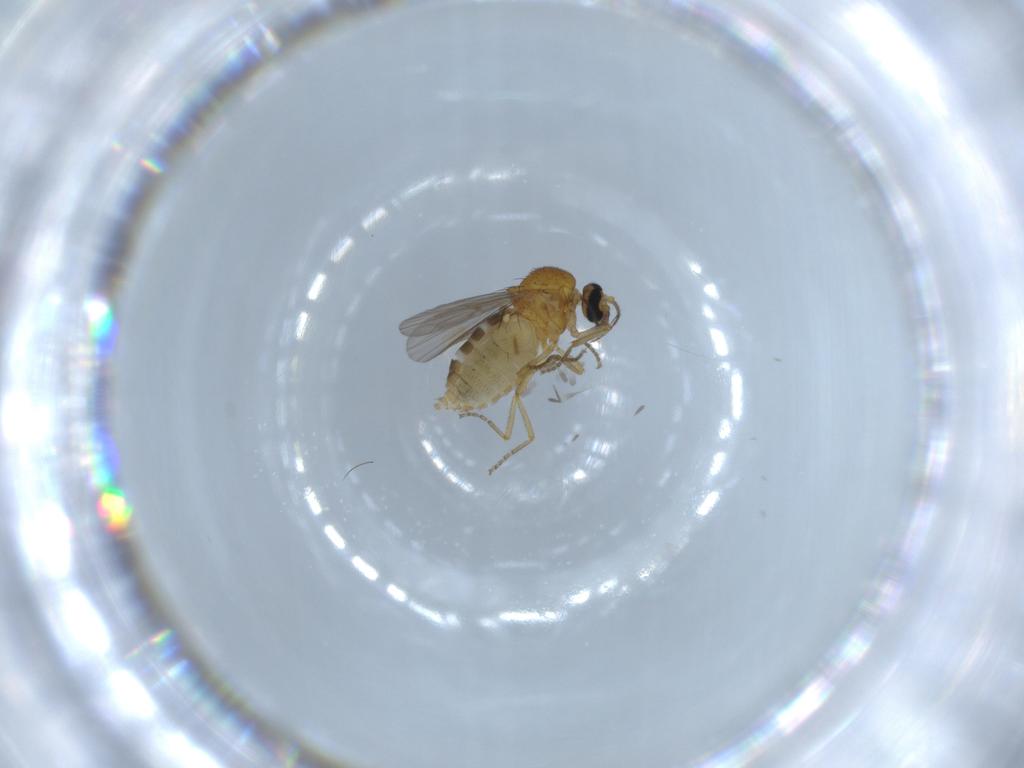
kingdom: Animalia
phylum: Arthropoda
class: Insecta
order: Diptera
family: Ceratopogonidae
